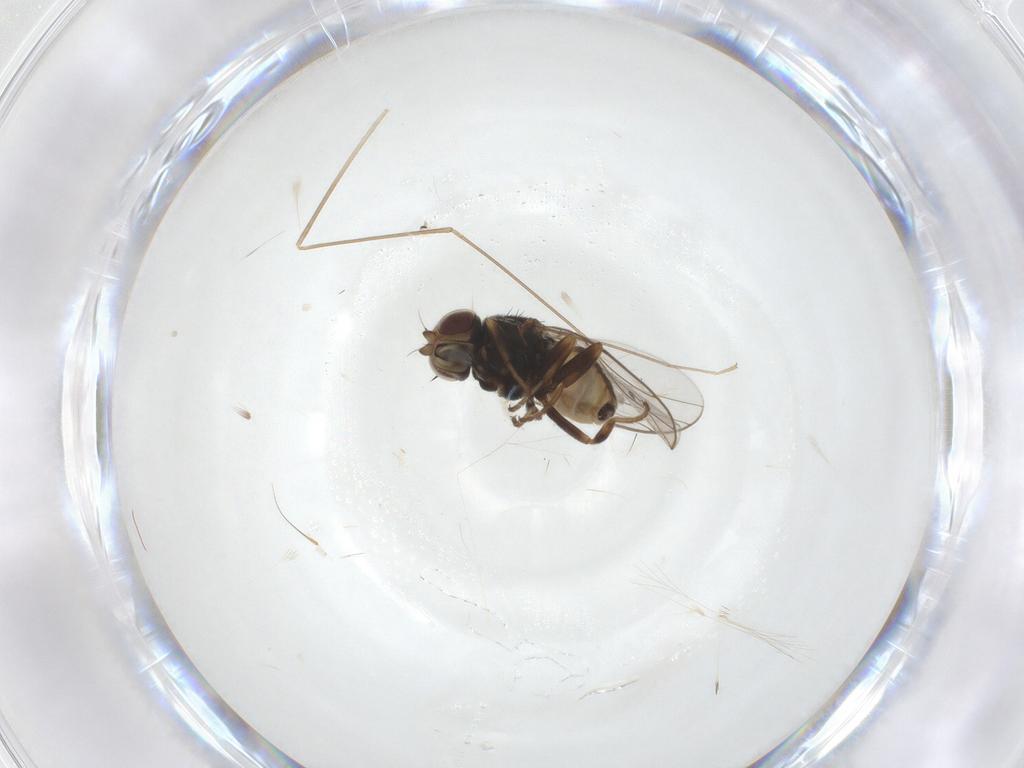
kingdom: Animalia
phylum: Arthropoda
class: Insecta
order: Diptera
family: Chloropidae
